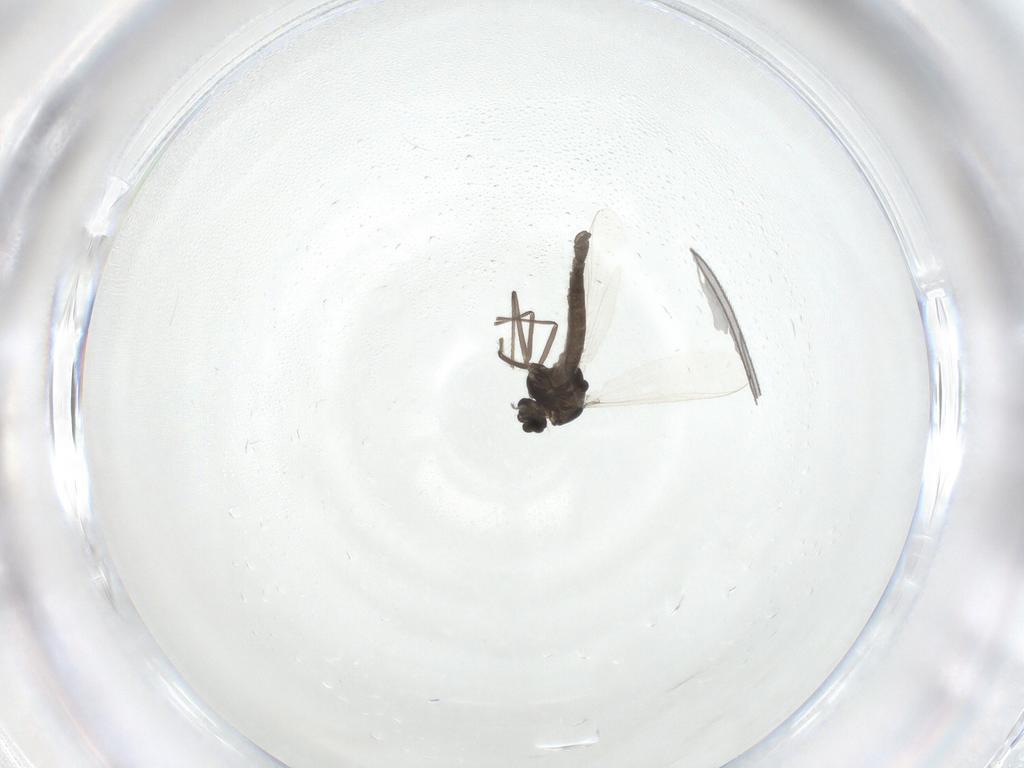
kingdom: Animalia
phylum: Arthropoda
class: Insecta
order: Diptera
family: Chironomidae
